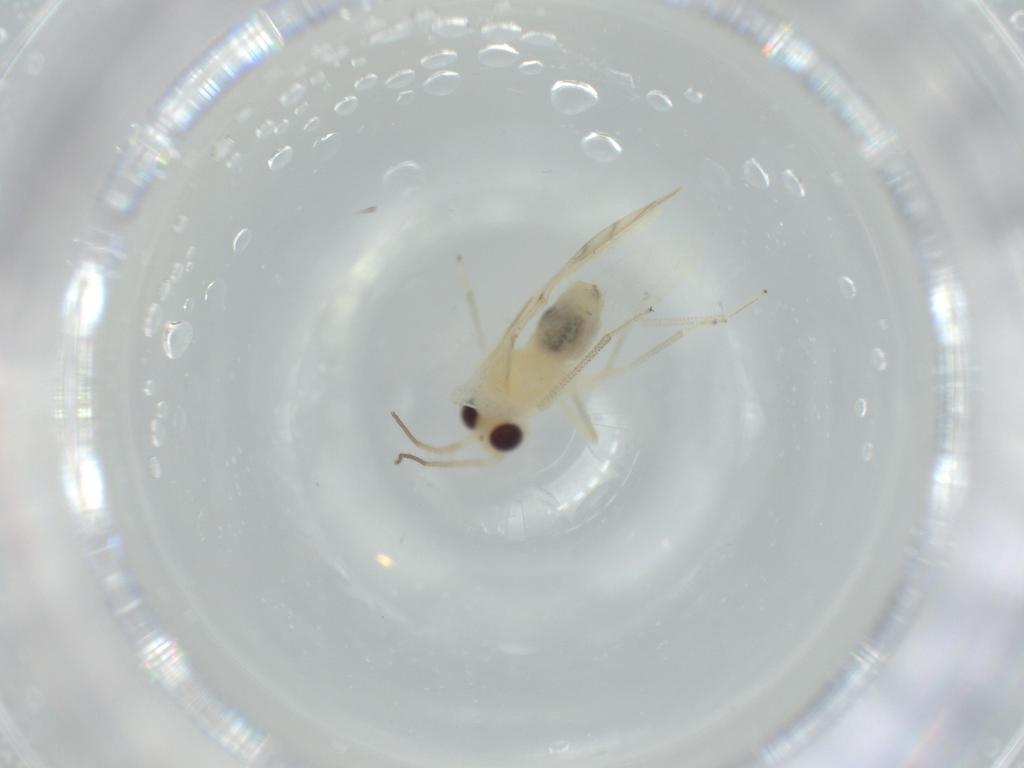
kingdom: Animalia
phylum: Arthropoda
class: Insecta
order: Psocodea
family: Caeciliusidae
